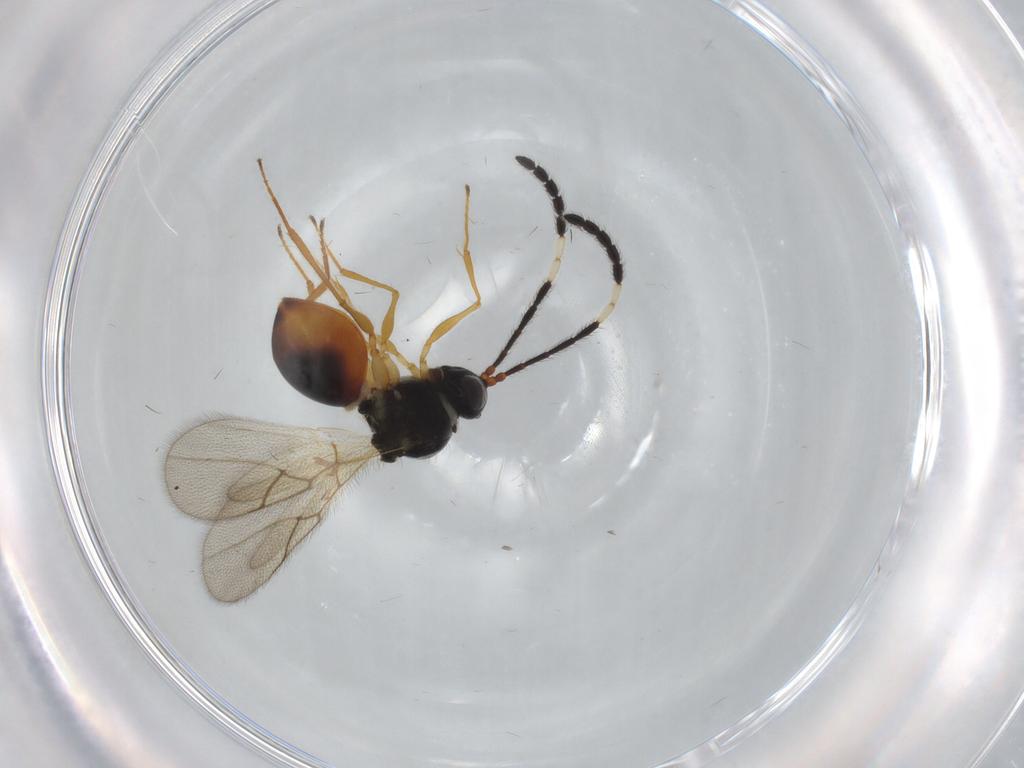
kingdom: Animalia
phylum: Arthropoda
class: Insecta
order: Hymenoptera
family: Figitidae
